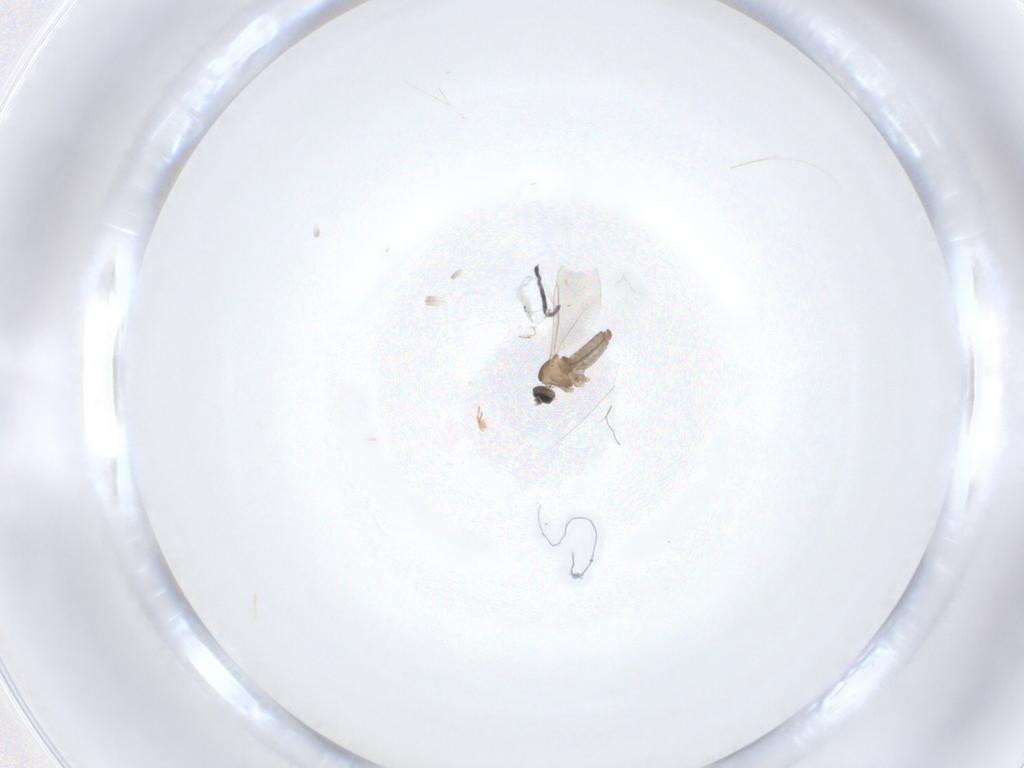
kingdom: Animalia
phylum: Arthropoda
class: Insecta
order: Diptera
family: Cecidomyiidae
